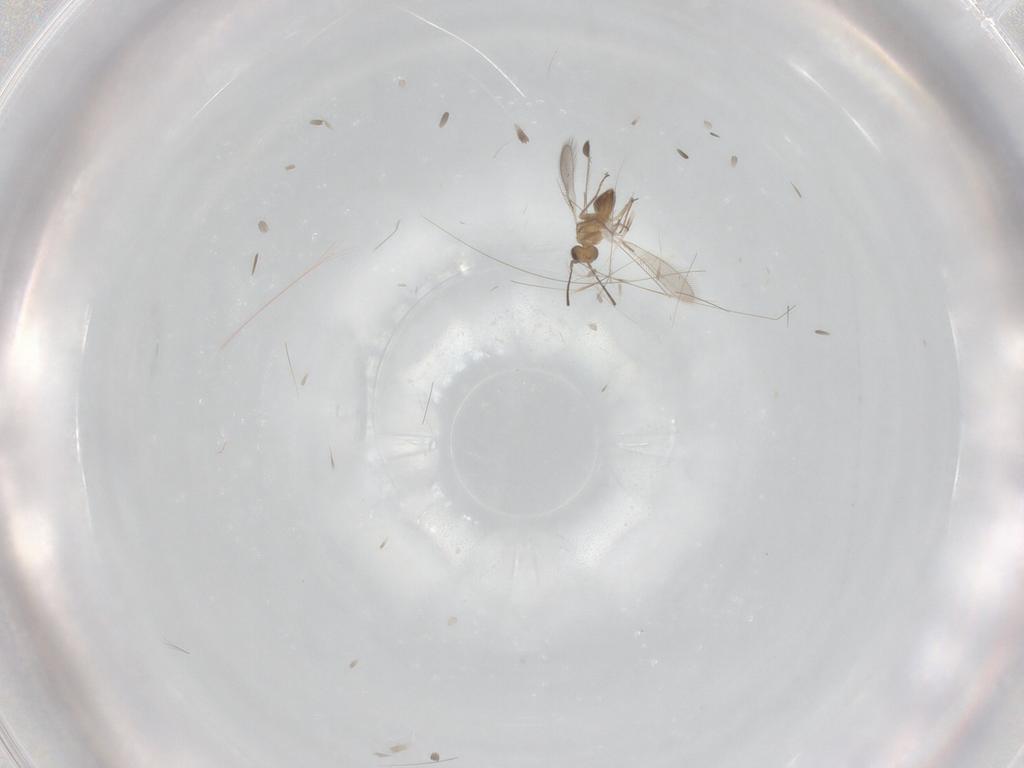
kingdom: Animalia
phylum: Arthropoda
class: Insecta
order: Hymenoptera
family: Torymidae
